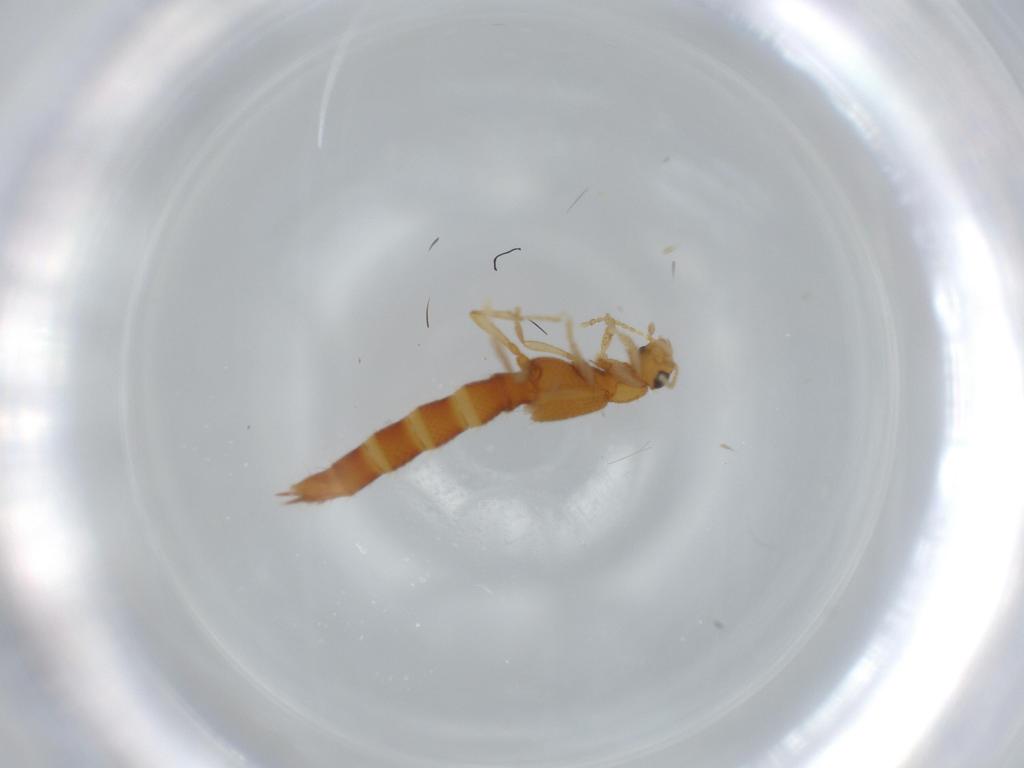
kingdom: Animalia
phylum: Arthropoda
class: Insecta
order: Coleoptera
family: Staphylinidae
